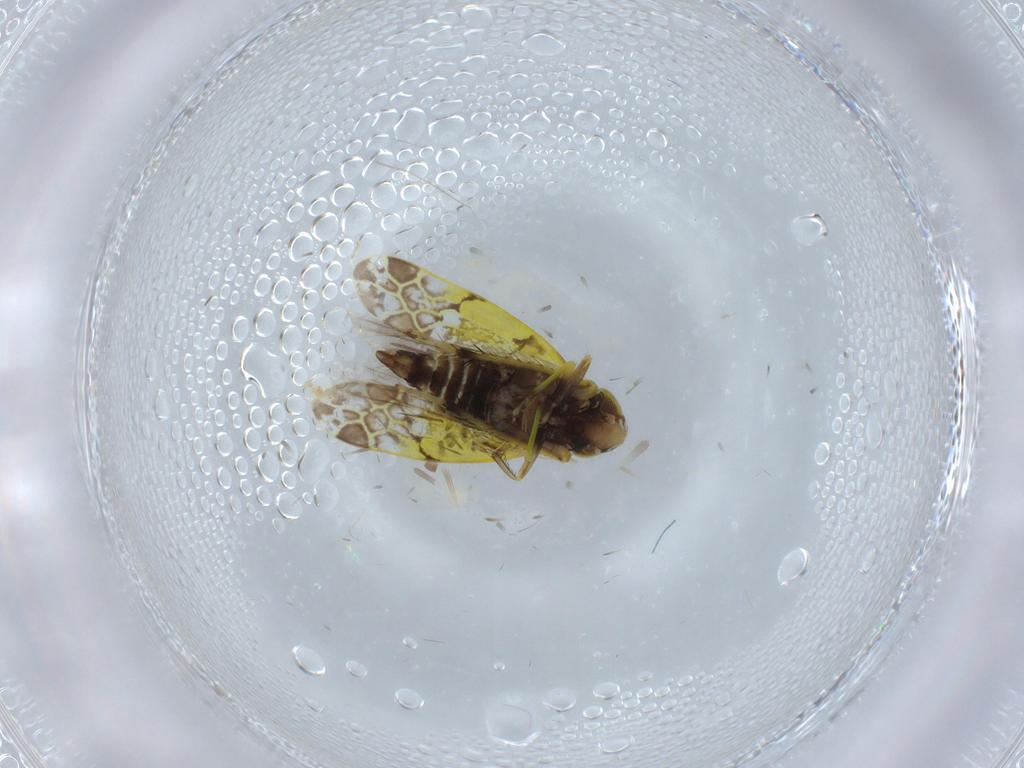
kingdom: Animalia
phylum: Arthropoda
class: Insecta
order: Hemiptera
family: Cicadellidae
